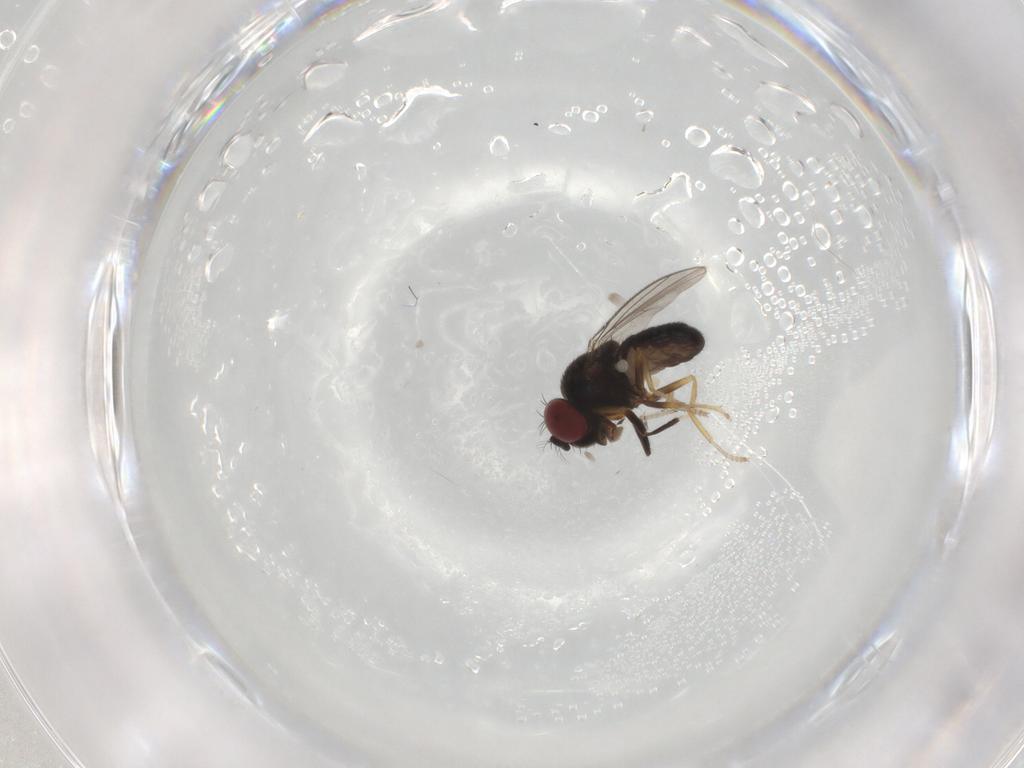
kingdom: Animalia
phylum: Arthropoda
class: Insecta
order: Diptera
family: Ephydridae
